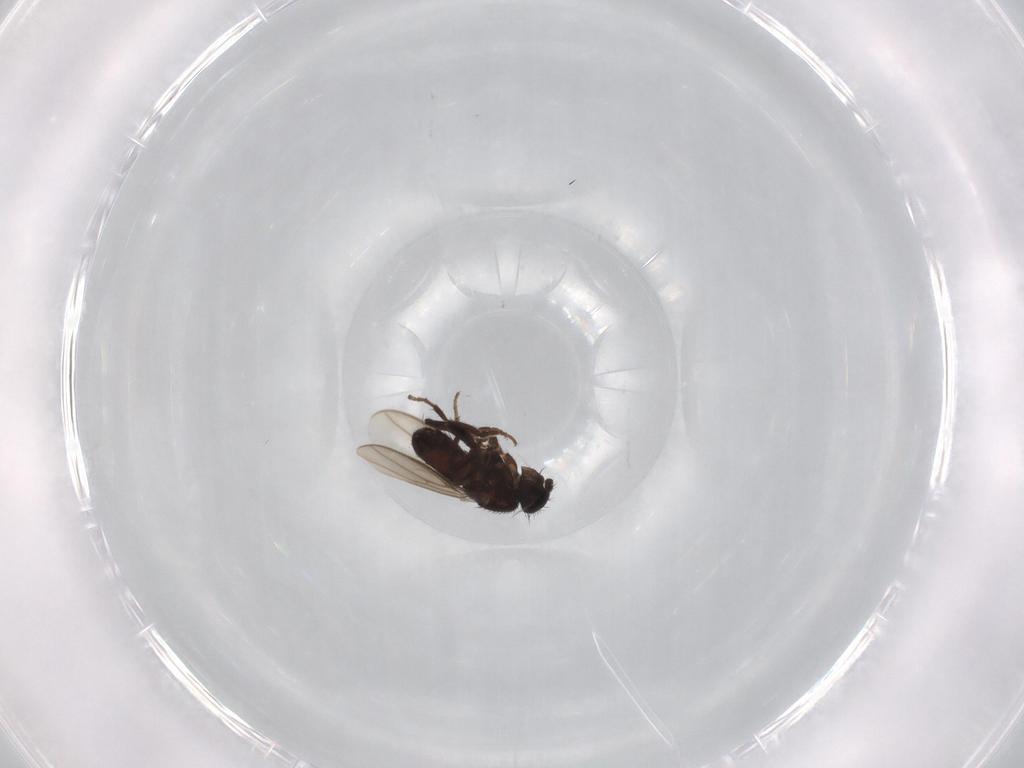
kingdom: Animalia
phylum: Arthropoda
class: Insecta
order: Diptera
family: Sphaeroceridae
